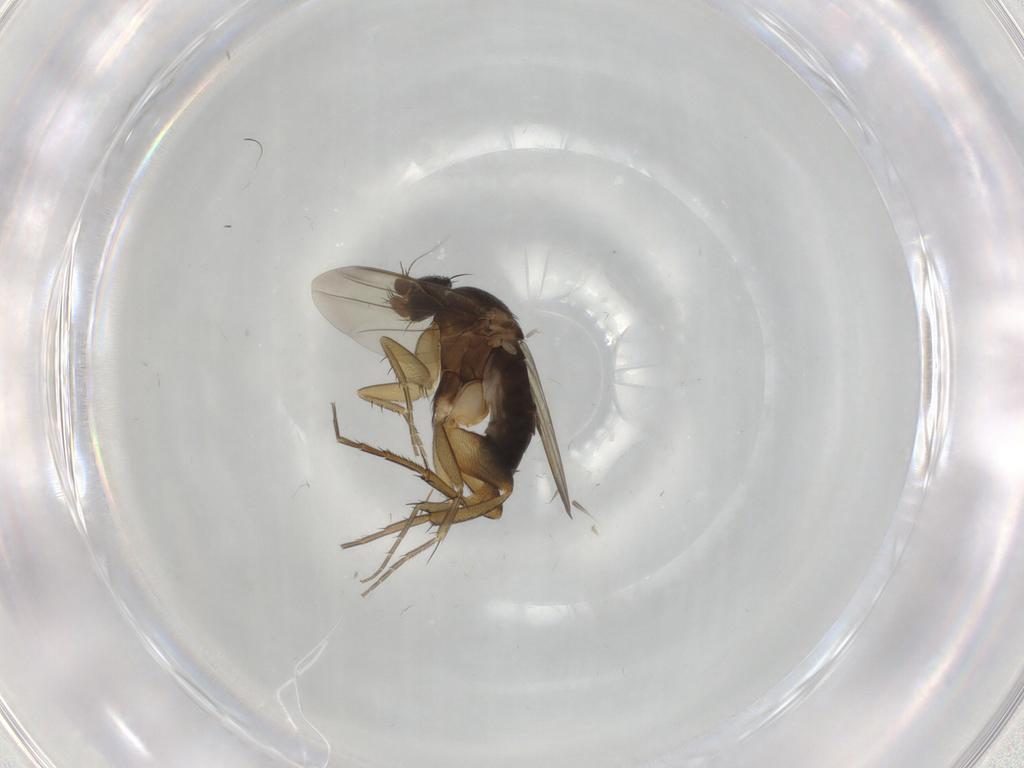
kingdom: Animalia
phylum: Arthropoda
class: Insecta
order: Diptera
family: Phoridae
